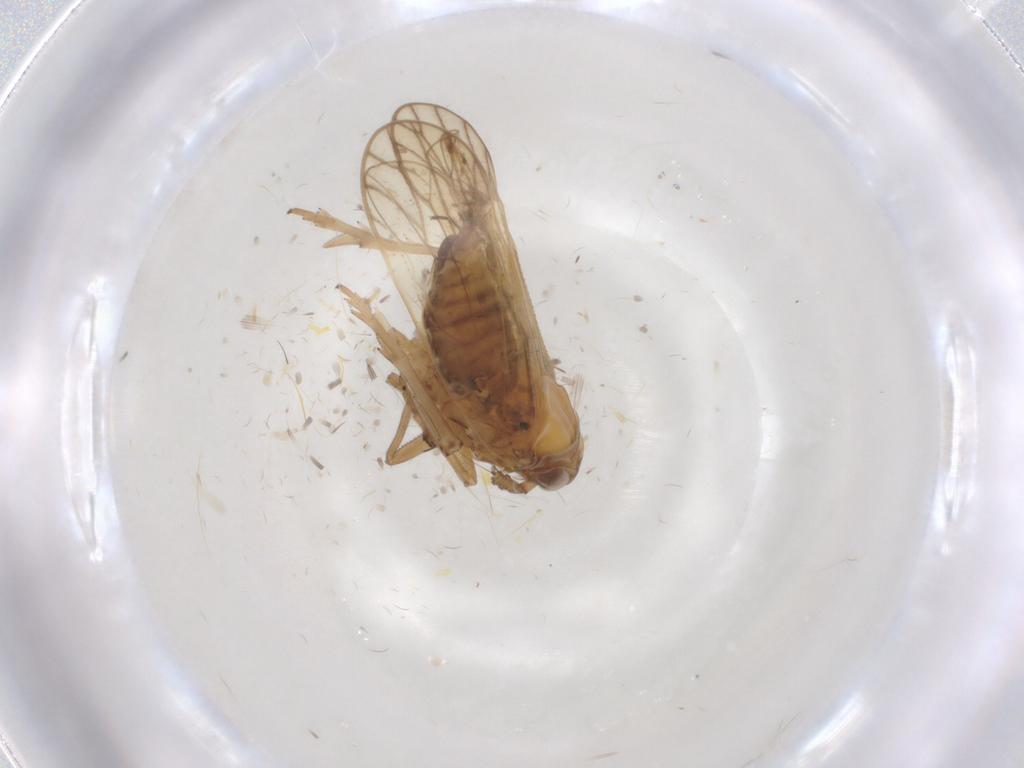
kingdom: Animalia
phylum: Arthropoda
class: Insecta
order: Hemiptera
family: Delphacidae
